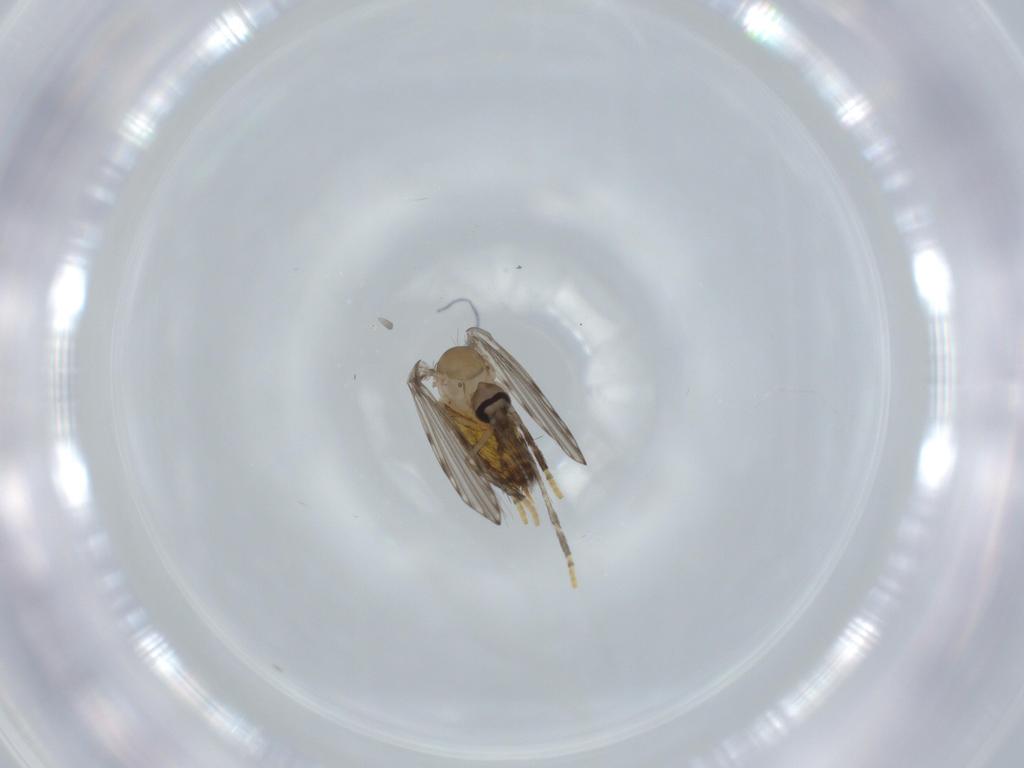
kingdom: Animalia
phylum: Arthropoda
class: Insecta
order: Diptera
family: Psychodidae
